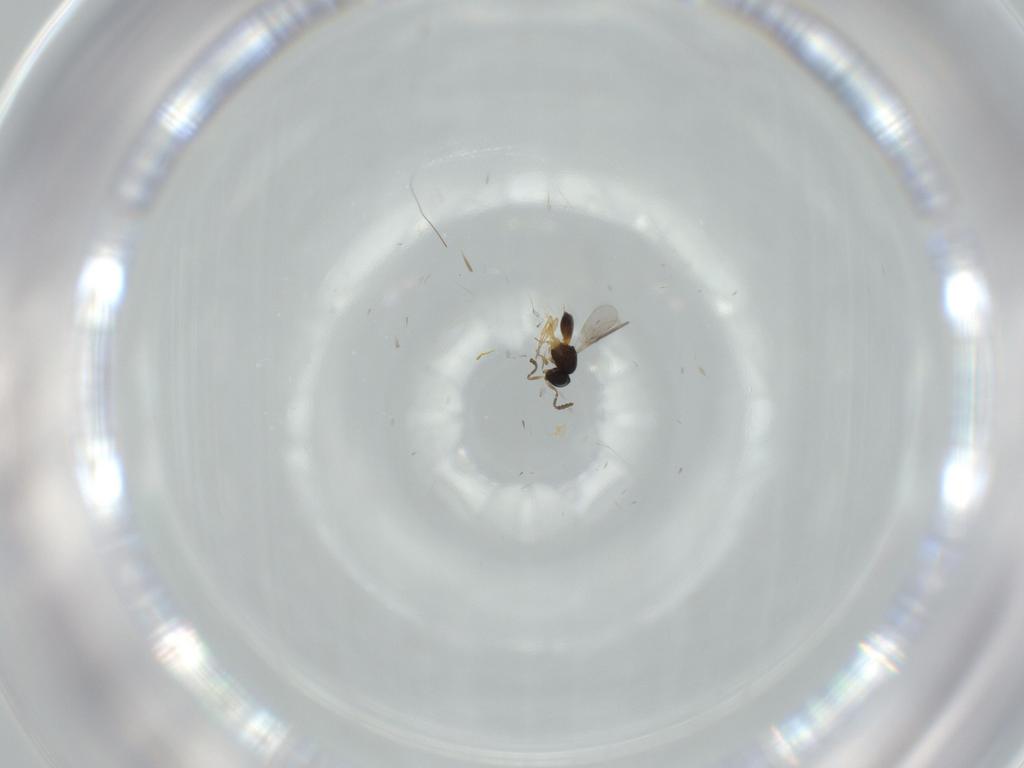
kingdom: Animalia
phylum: Arthropoda
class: Insecta
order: Hymenoptera
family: Scelionidae
